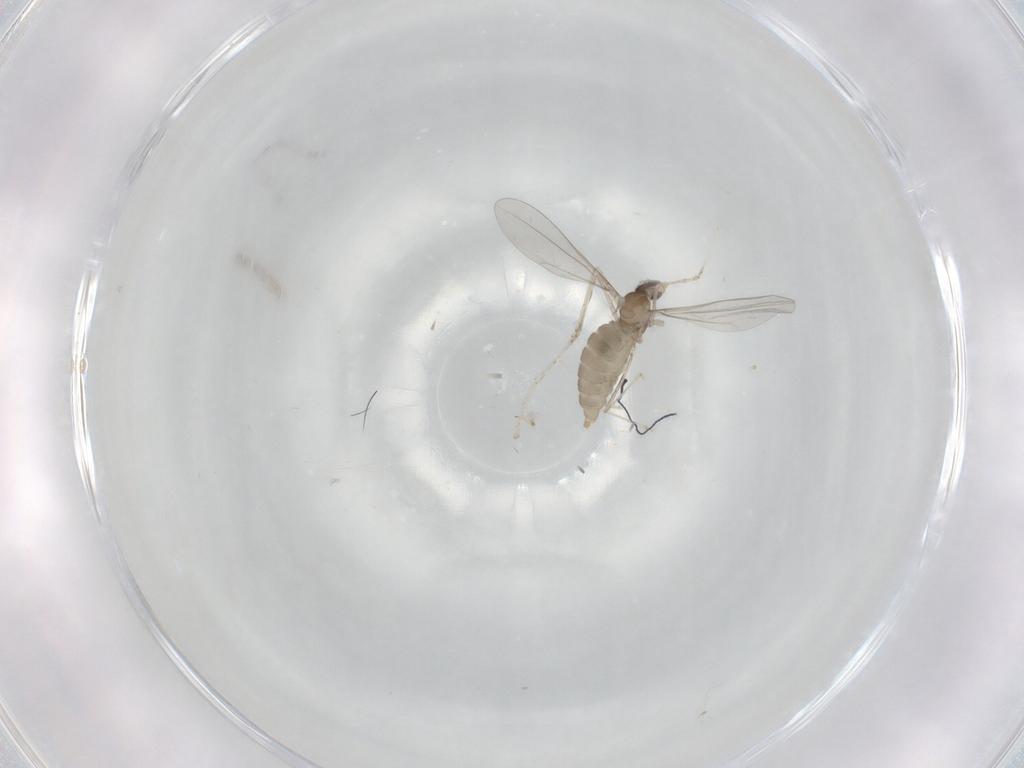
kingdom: Animalia
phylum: Arthropoda
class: Insecta
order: Diptera
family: Cecidomyiidae
